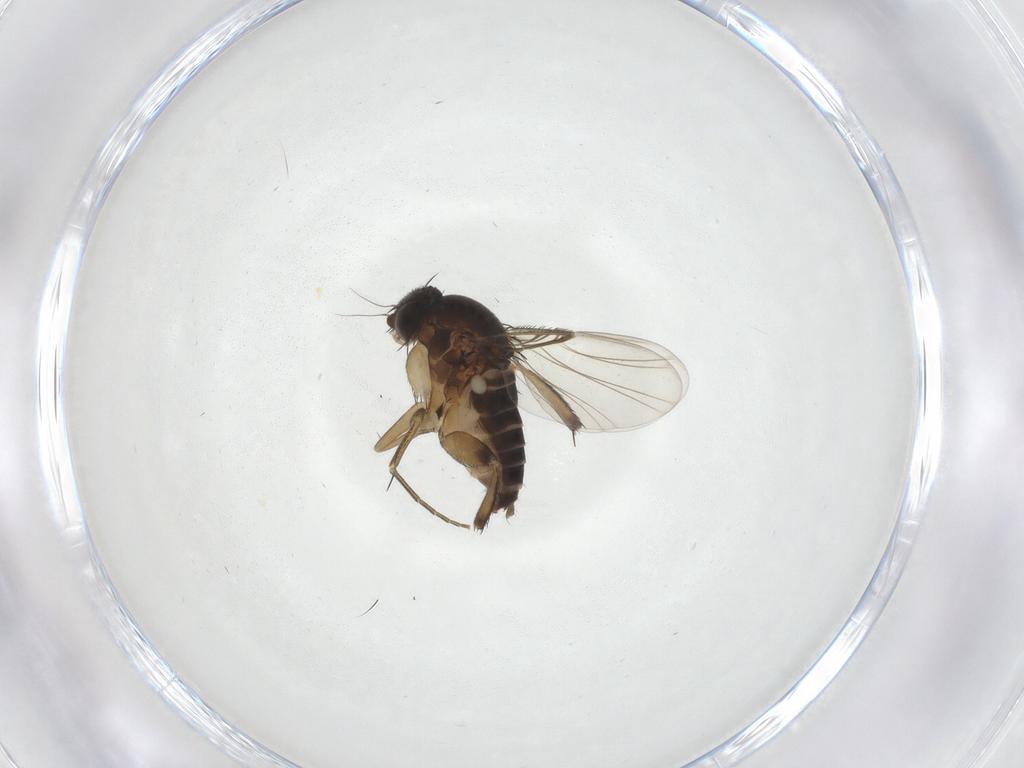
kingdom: Animalia
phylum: Arthropoda
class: Insecta
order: Diptera
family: Phoridae
